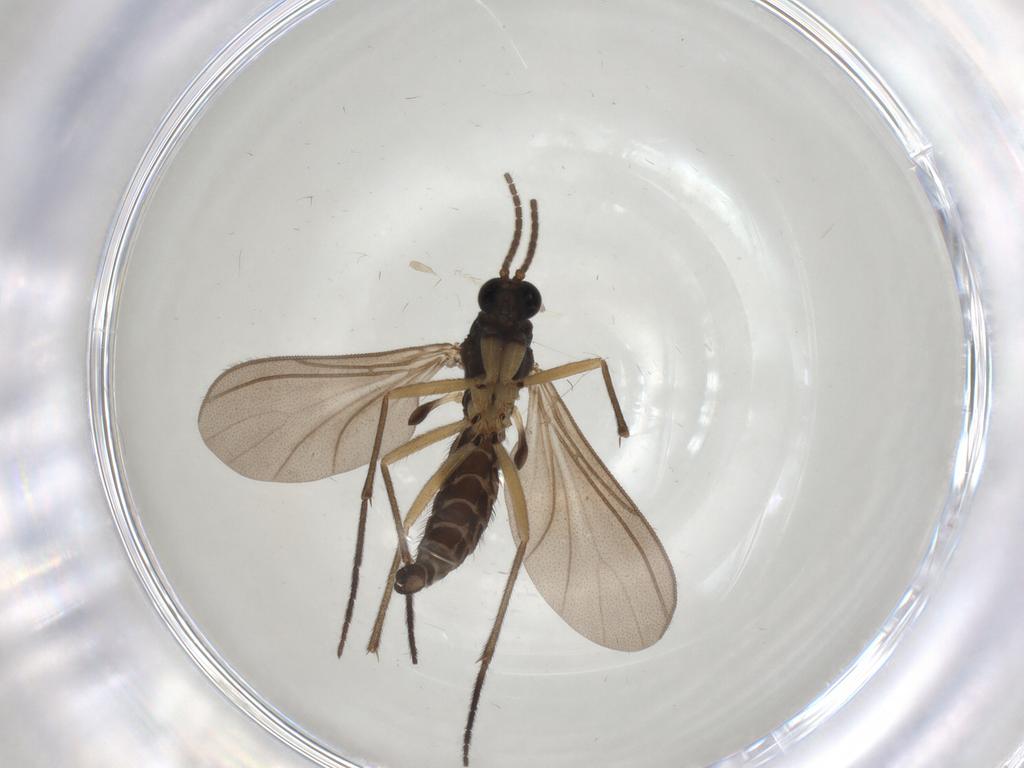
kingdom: Animalia
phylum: Arthropoda
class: Insecta
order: Diptera
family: Sciaridae
